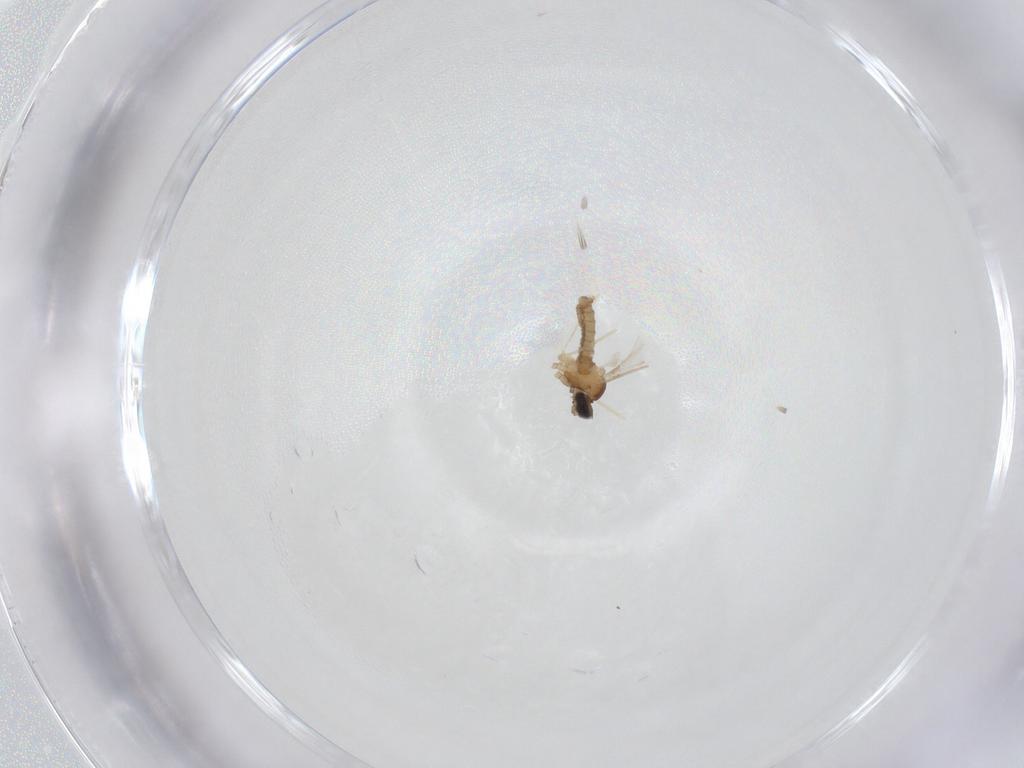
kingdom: Animalia
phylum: Arthropoda
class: Insecta
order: Diptera
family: Cecidomyiidae
